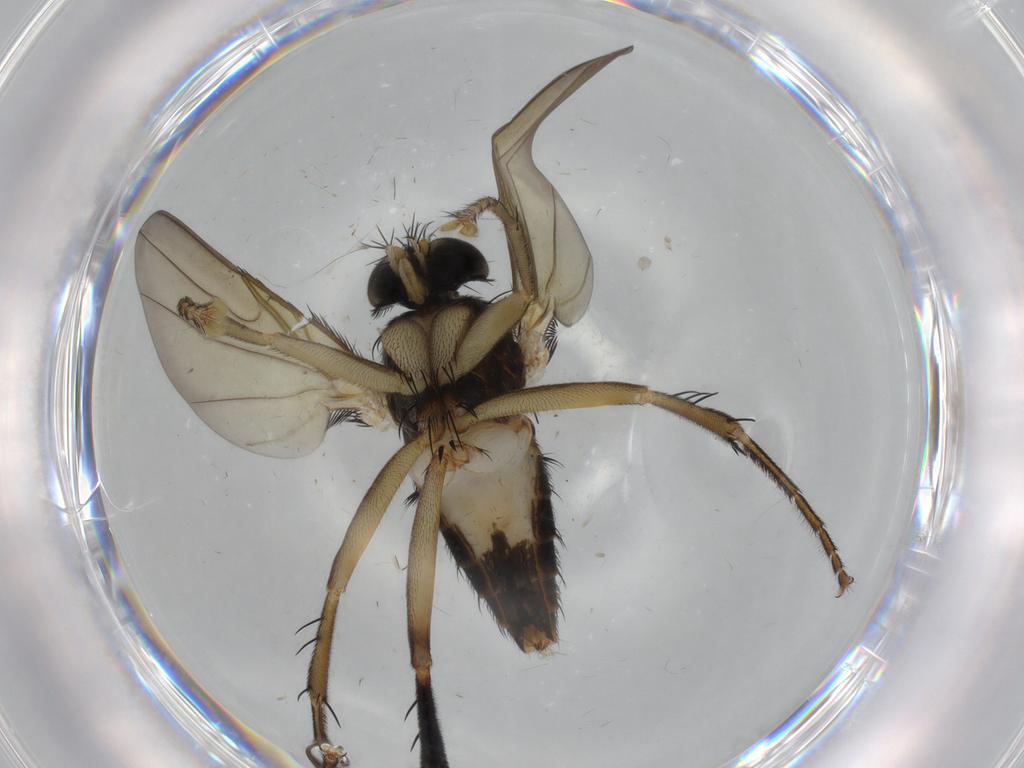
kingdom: Animalia
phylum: Arthropoda
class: Insecta
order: Diptera
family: Phoridae
